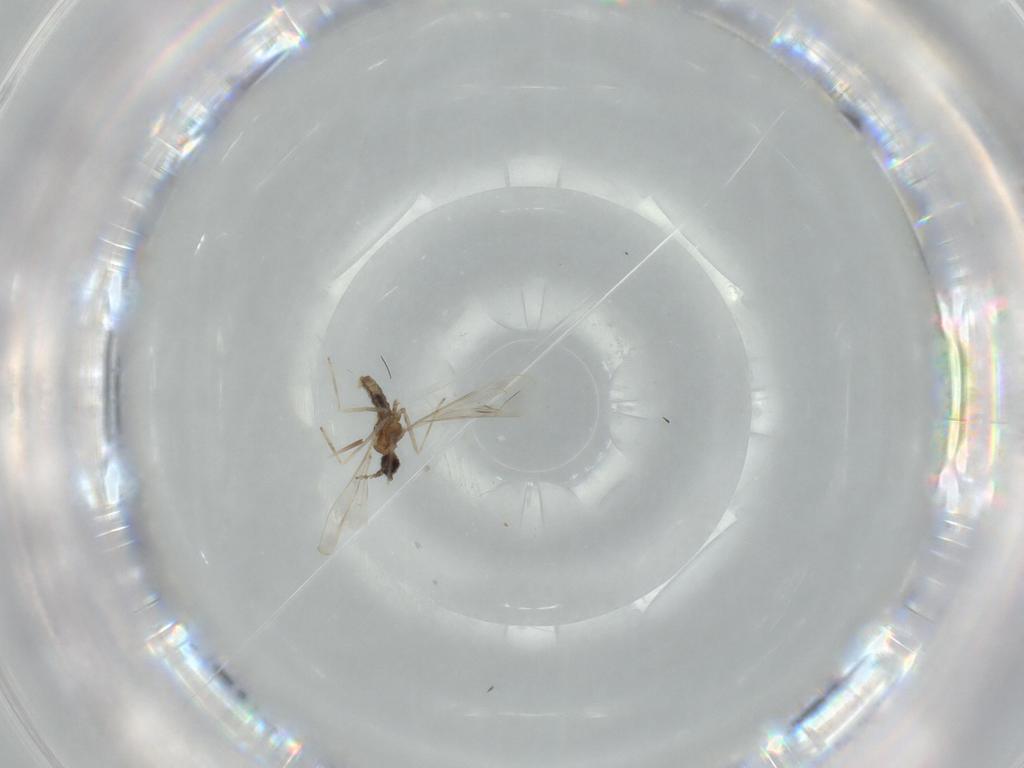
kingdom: Animalia
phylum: Arthropoda
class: Insecta
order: Diptera
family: Cecidomyiidae
